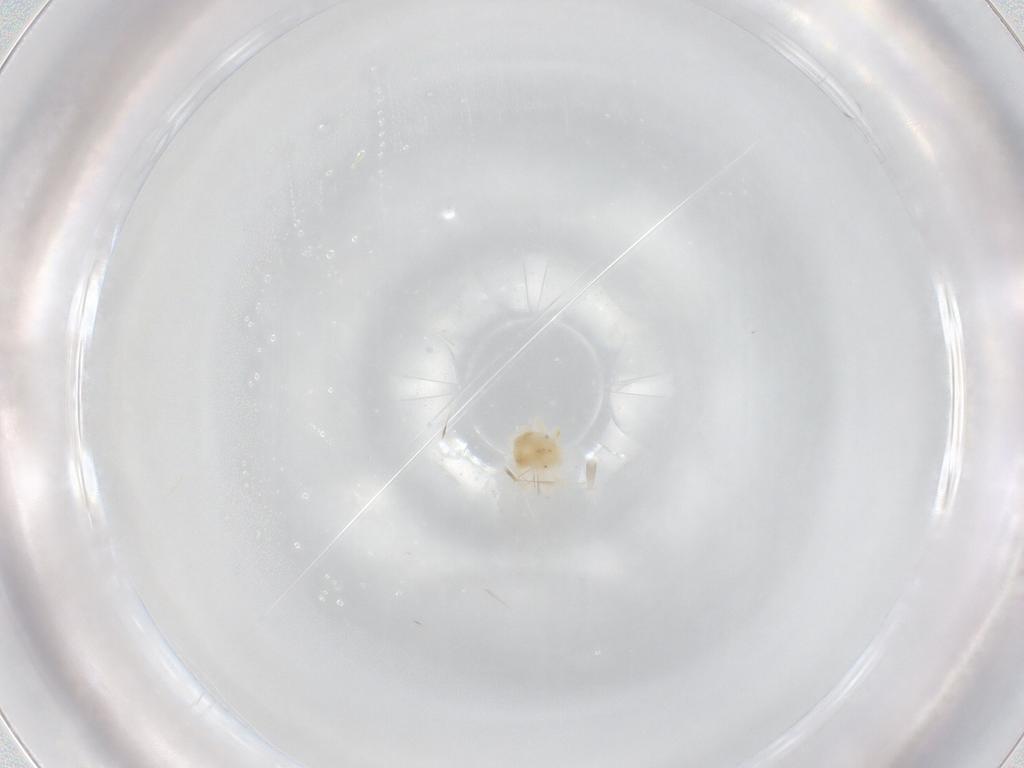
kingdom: Animalia
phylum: Arthropoda
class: Arachnida
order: Trombidiformes
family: Anystidae
